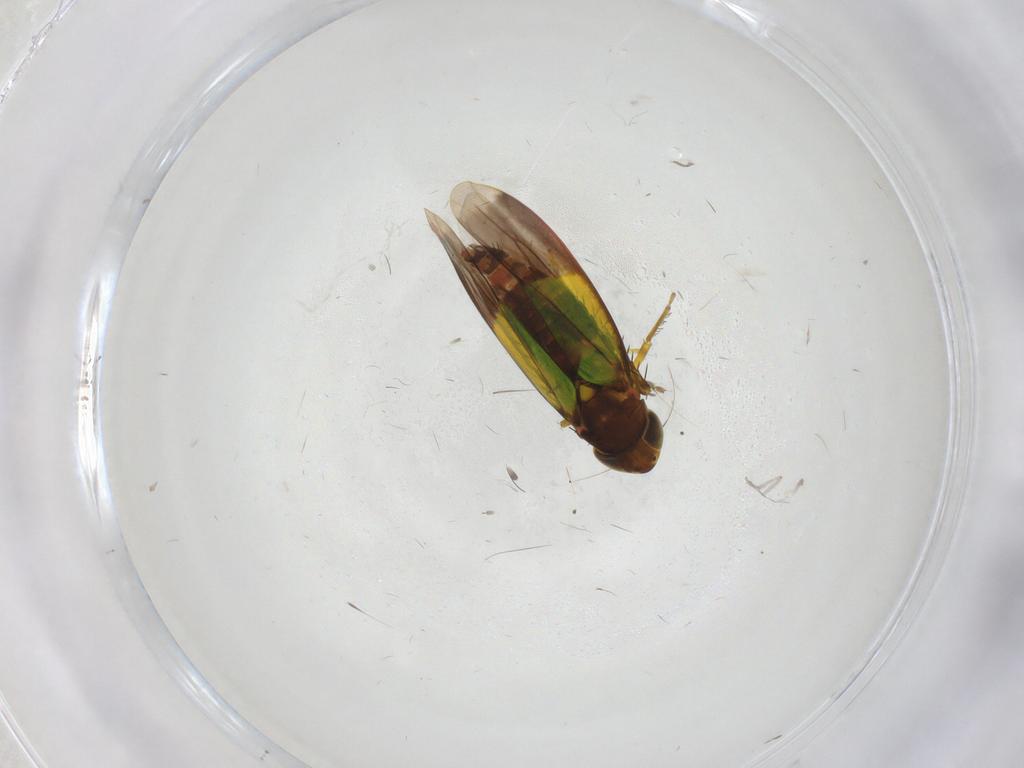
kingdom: Animalia
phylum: Arthropoda
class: Insecta
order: Hemiptera
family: Cicadellidae
